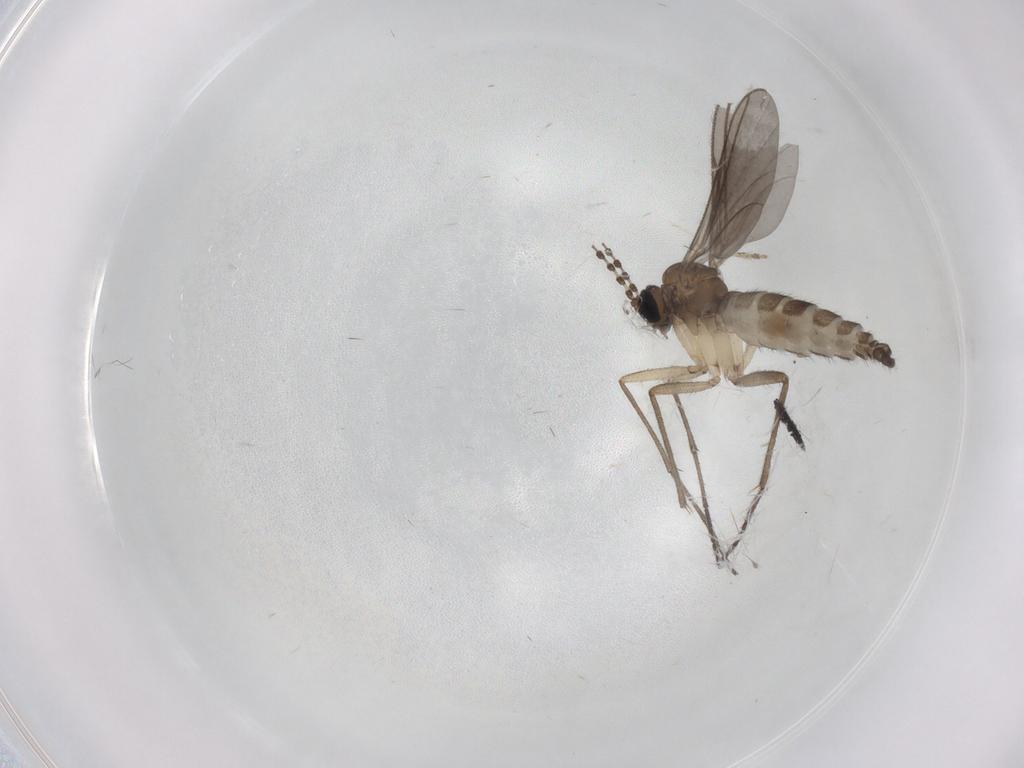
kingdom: Animalia
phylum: Arthropoda
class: Insecta
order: Diptera
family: Sciaridae
